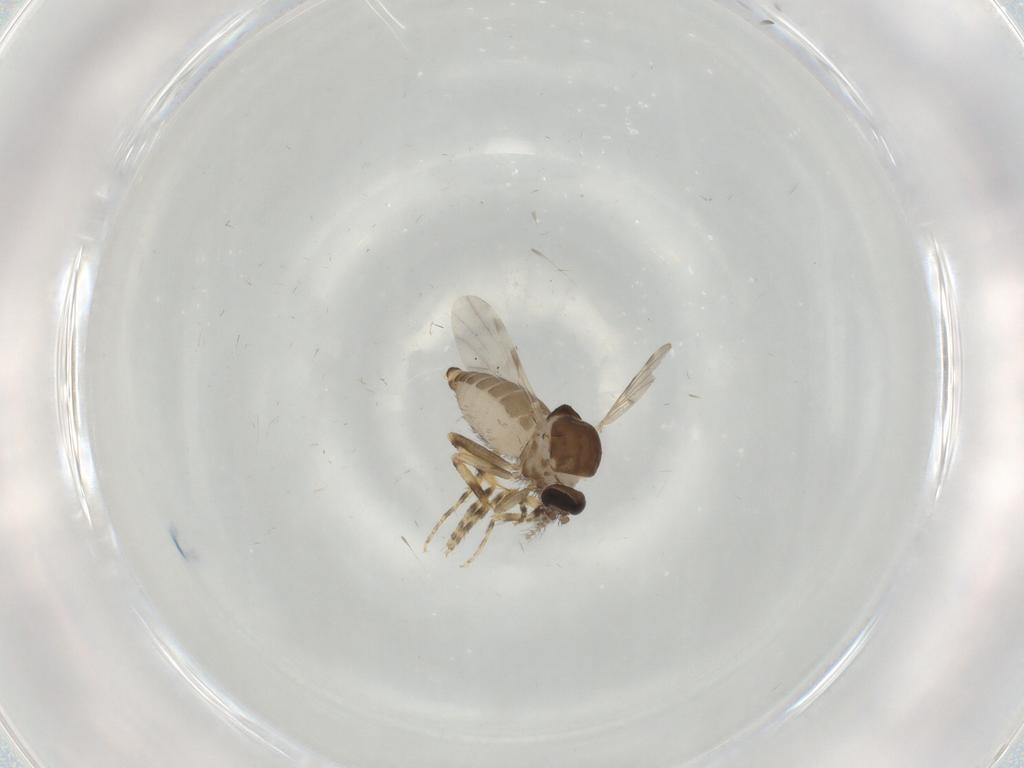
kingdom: Animalia
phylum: Arthropoda
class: Insecta
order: Diptera
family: Ceratopogonidae
